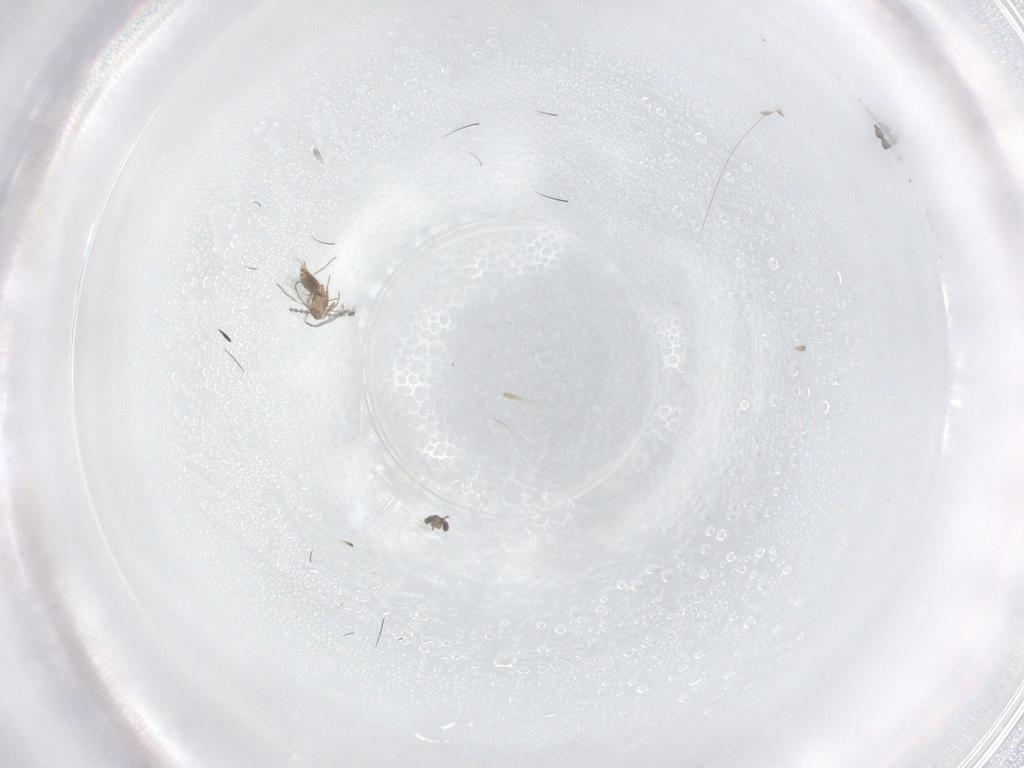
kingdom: Animalia
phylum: Arthropoda
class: Insecta
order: Hymenoptera
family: Mymaridae
